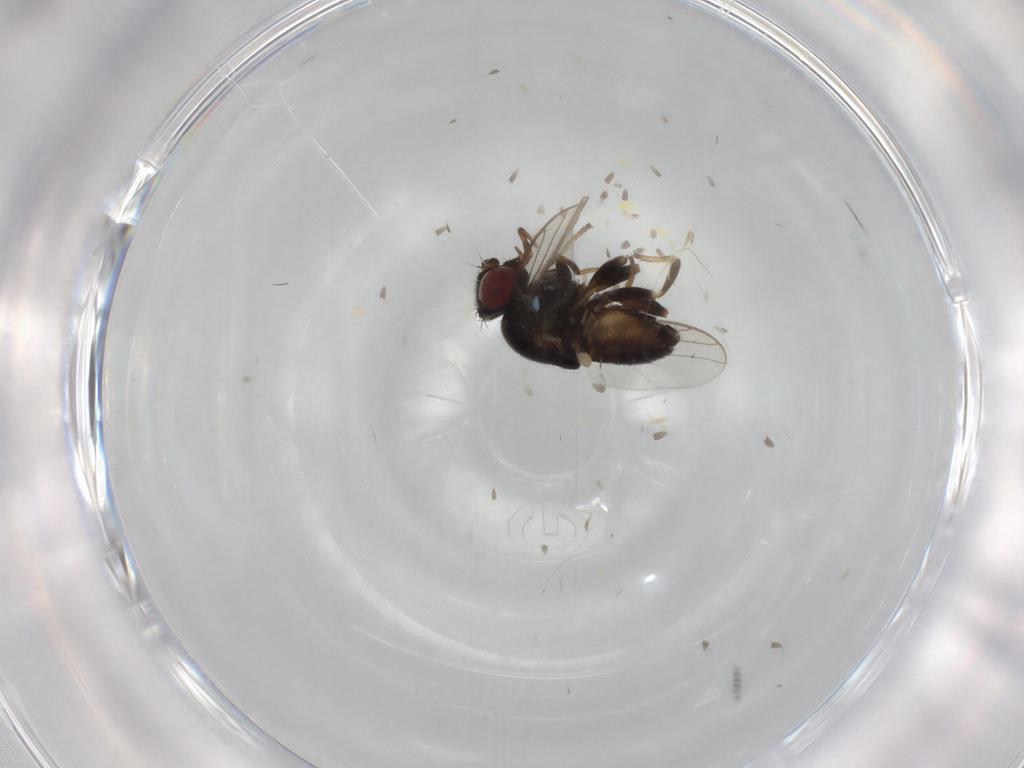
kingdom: Animalia
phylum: Arthropoda
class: Insecta
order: Diptera
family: Chloropidae
